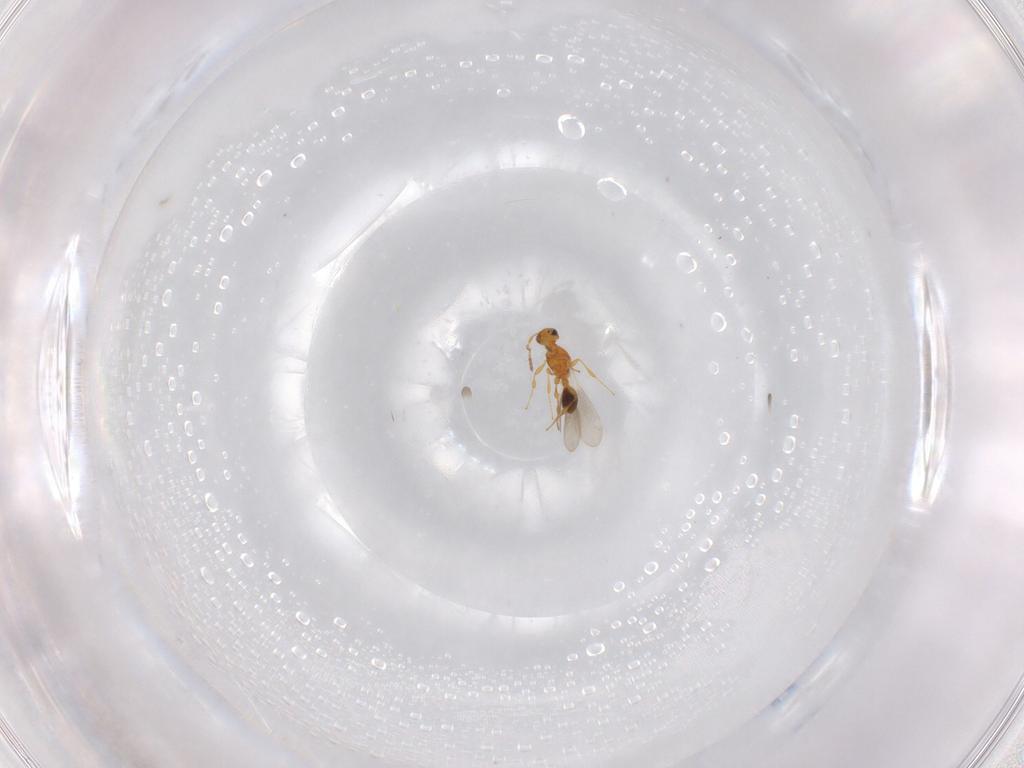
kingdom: Animalia
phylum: Arthropoda
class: Insecta
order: Hymenoptera
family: Platygastridae
